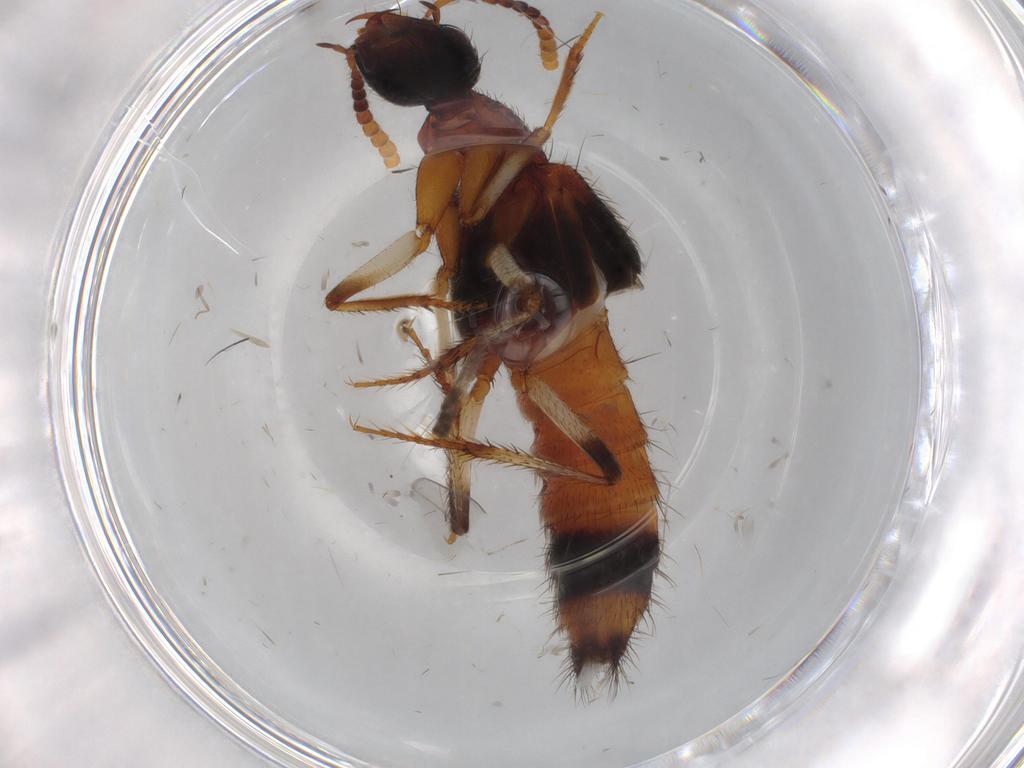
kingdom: Animalia
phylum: Arthropoda
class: Insecta
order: Coleoptera
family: Staphylinidae
